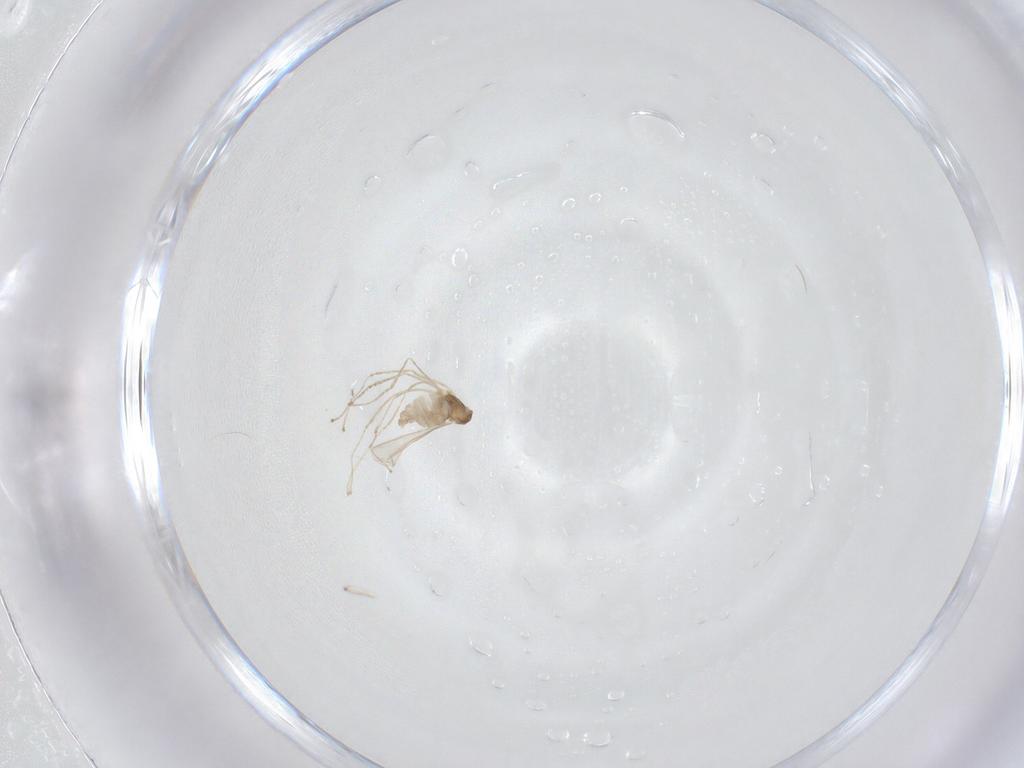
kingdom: Animalia
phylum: Arthropoda
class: Insecta
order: Diptera
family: Cecidomyiidae
